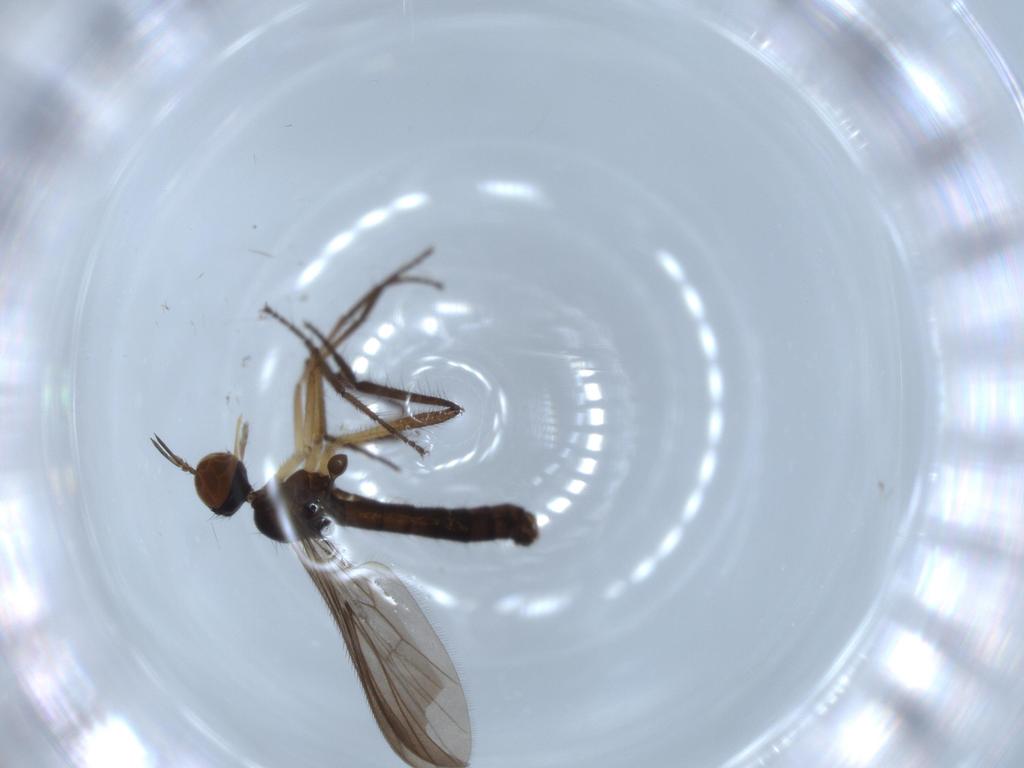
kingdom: Animalia
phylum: Arthropoda
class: Insecta
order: Diptera
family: Empididae
